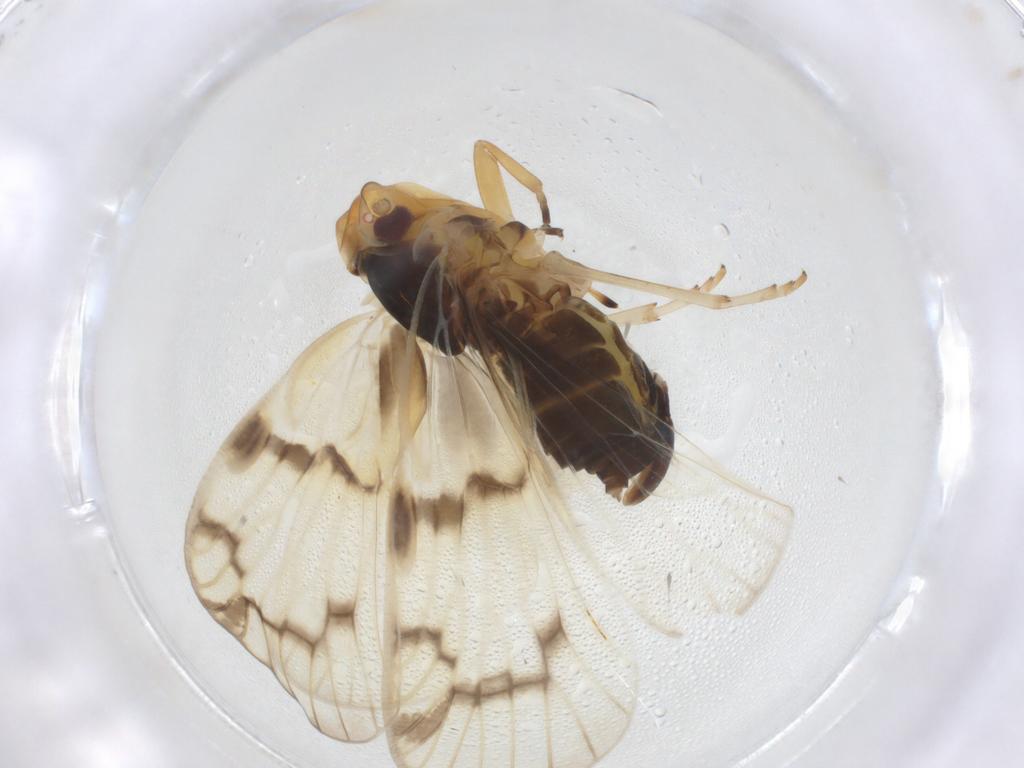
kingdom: Animalia
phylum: Arthropoda
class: Insecta
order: Hemiptera
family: Cixiidae
